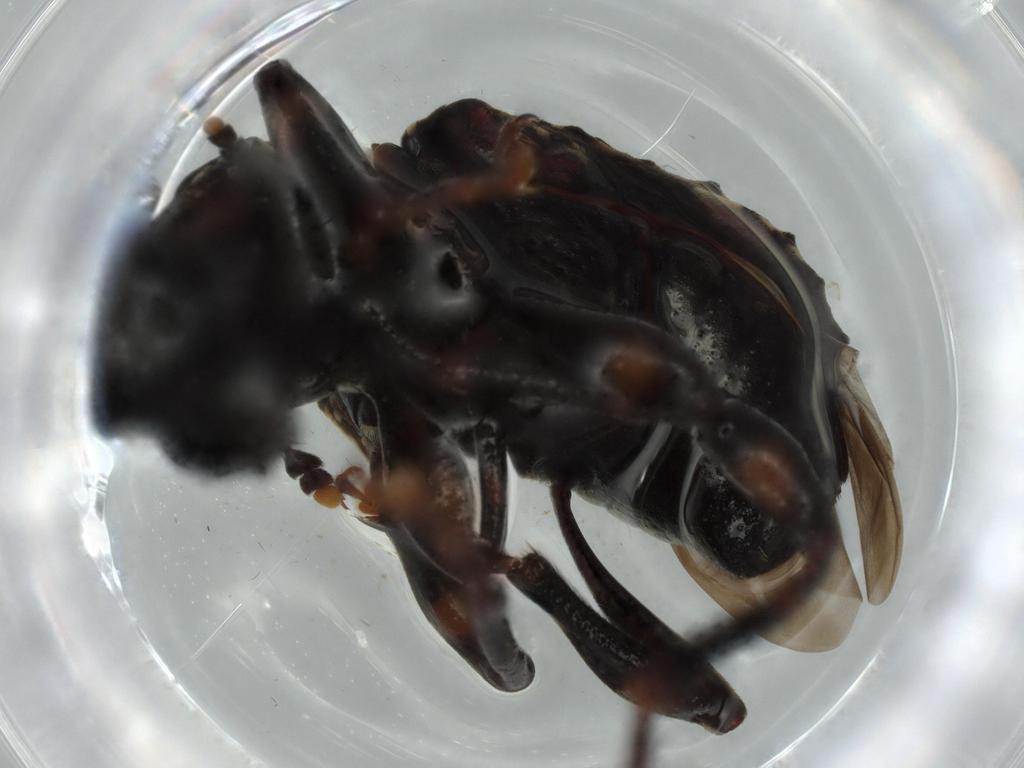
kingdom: Animalia
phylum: Arthropoda
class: Insecta
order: Coleoptera
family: Anthribidae
